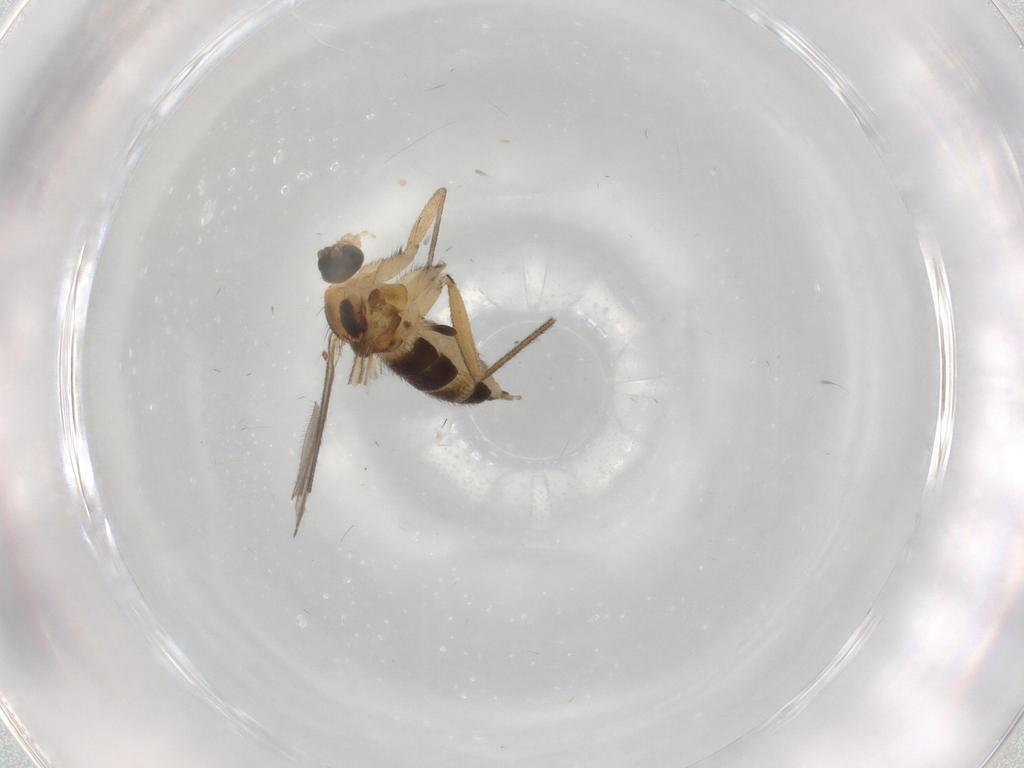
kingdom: Animalia
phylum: Arthropoda
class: Insecta
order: Diptera
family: Sciaridae
